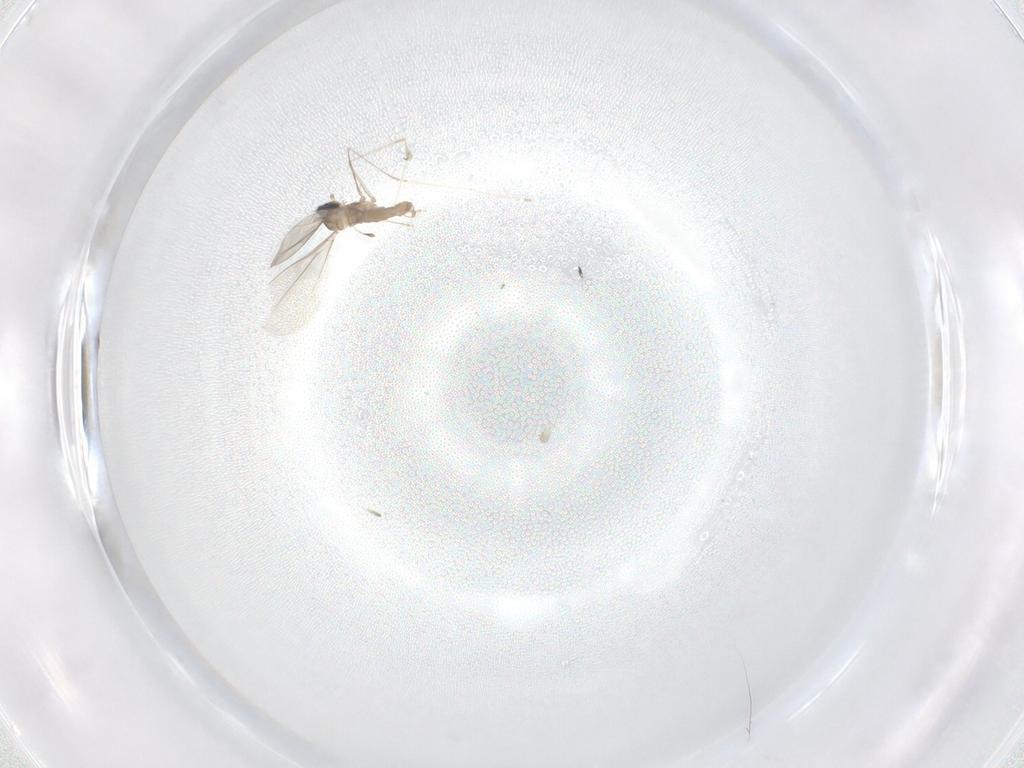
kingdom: Animalia
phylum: Arthropoda
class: Insecta
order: Diptera
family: Cecidomyiidae
